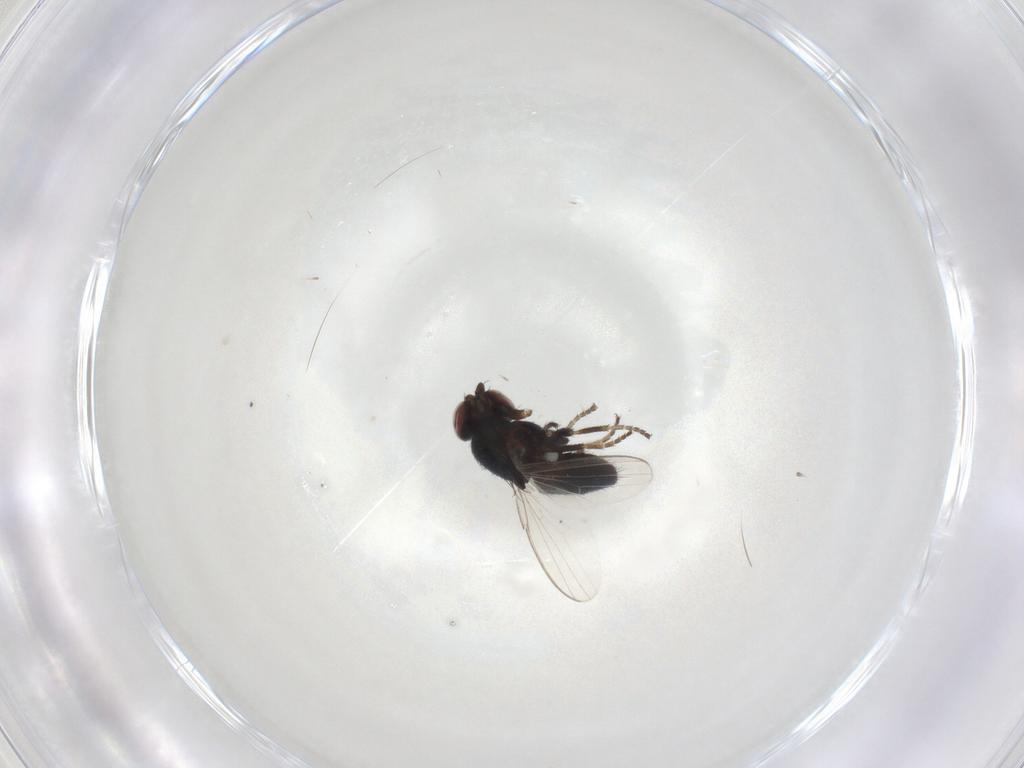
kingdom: Animalia
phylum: Arthropoda
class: Insecta
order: Diptera
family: Milichiidae
